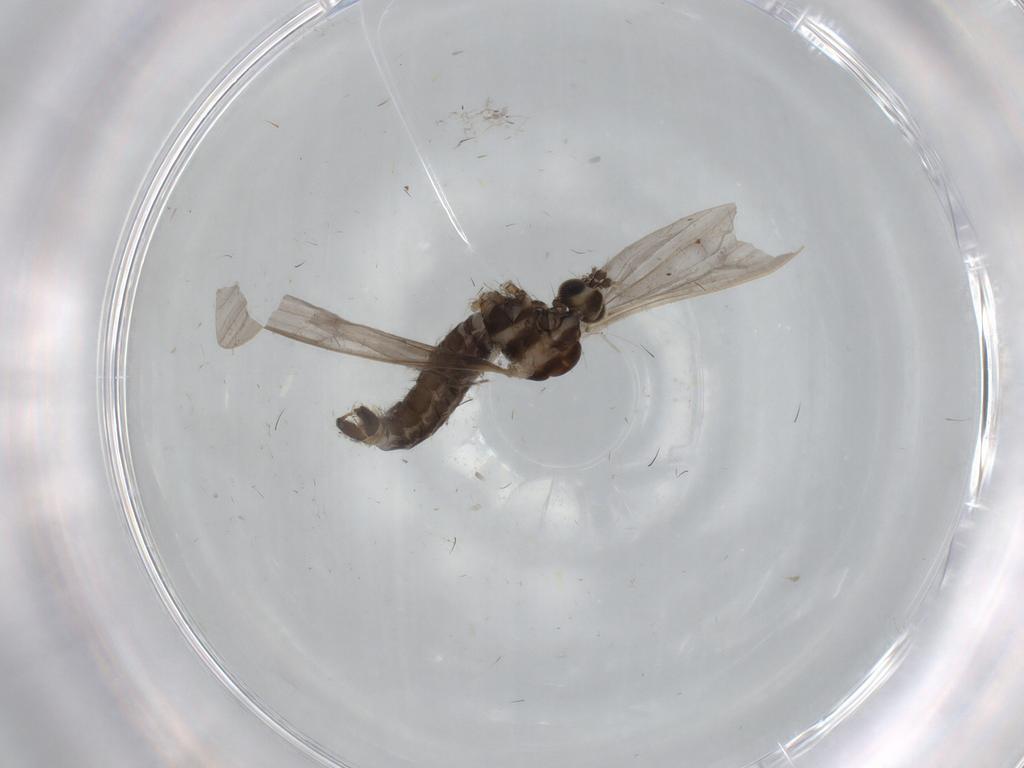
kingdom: Animalia
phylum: Arthropoda
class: Insecta
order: Diptera
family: Limoniidae
